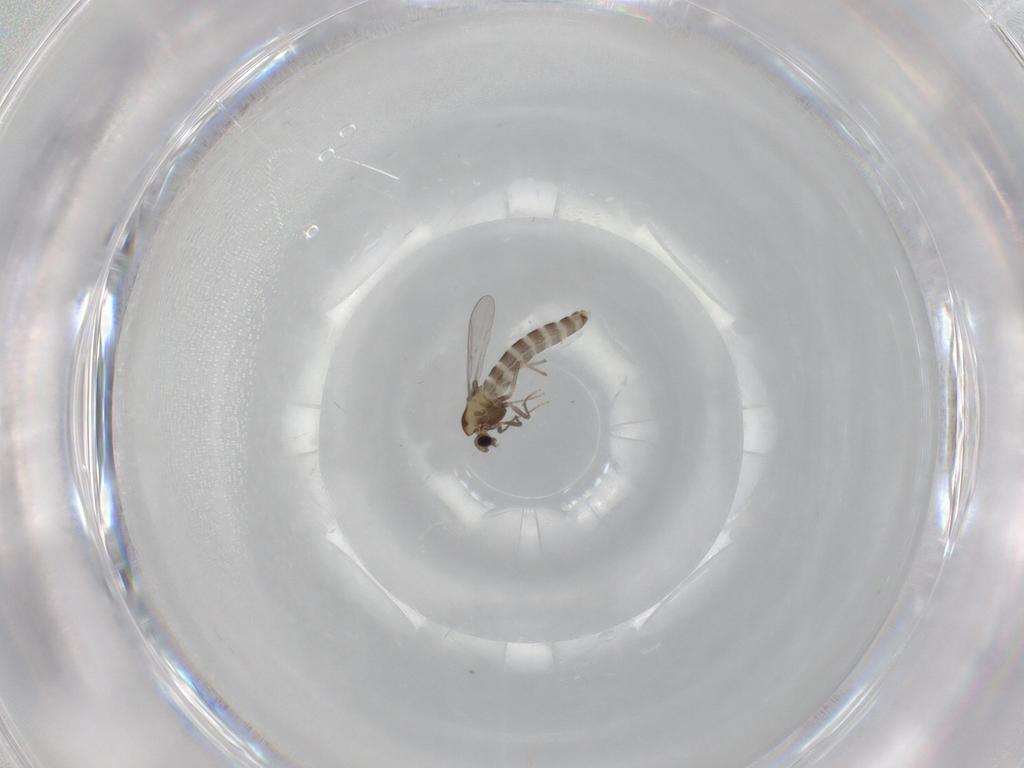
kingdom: Animalia
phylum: Arthropoda
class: Insecta
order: Diptera
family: Chironomidae
